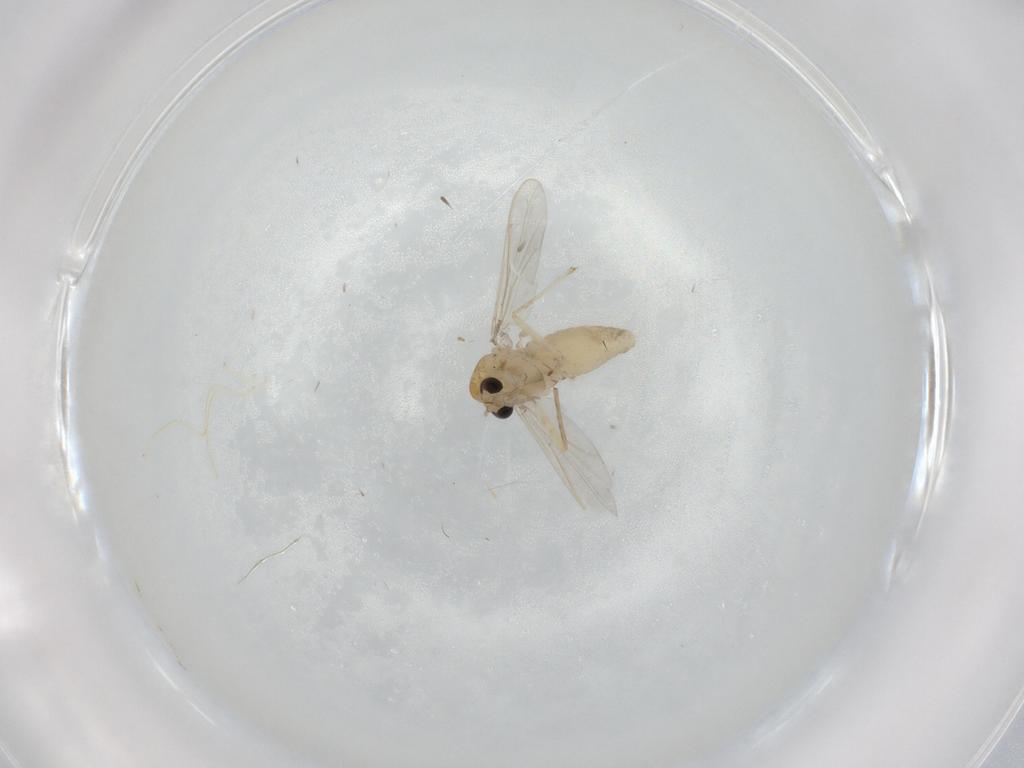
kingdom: Animalia
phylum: Arthropoda
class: Insecta
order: Diptera
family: Chironomidae
